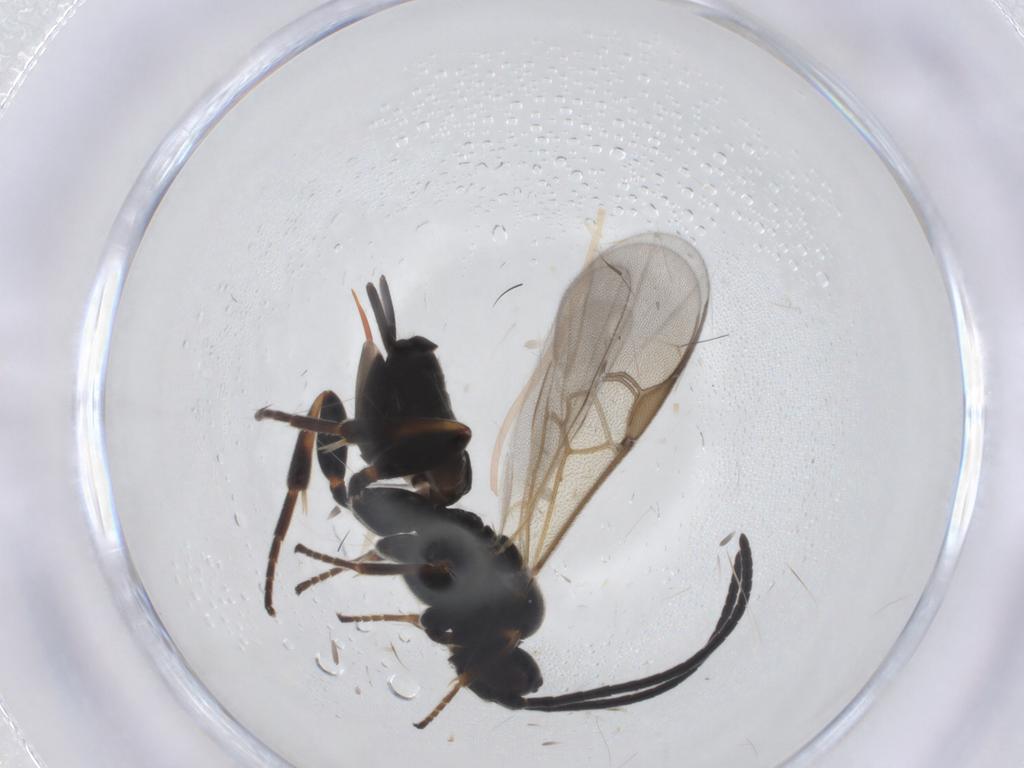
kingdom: Animalia
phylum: Arthropoda
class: Insecta
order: Hymenoptera
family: Braconidae
